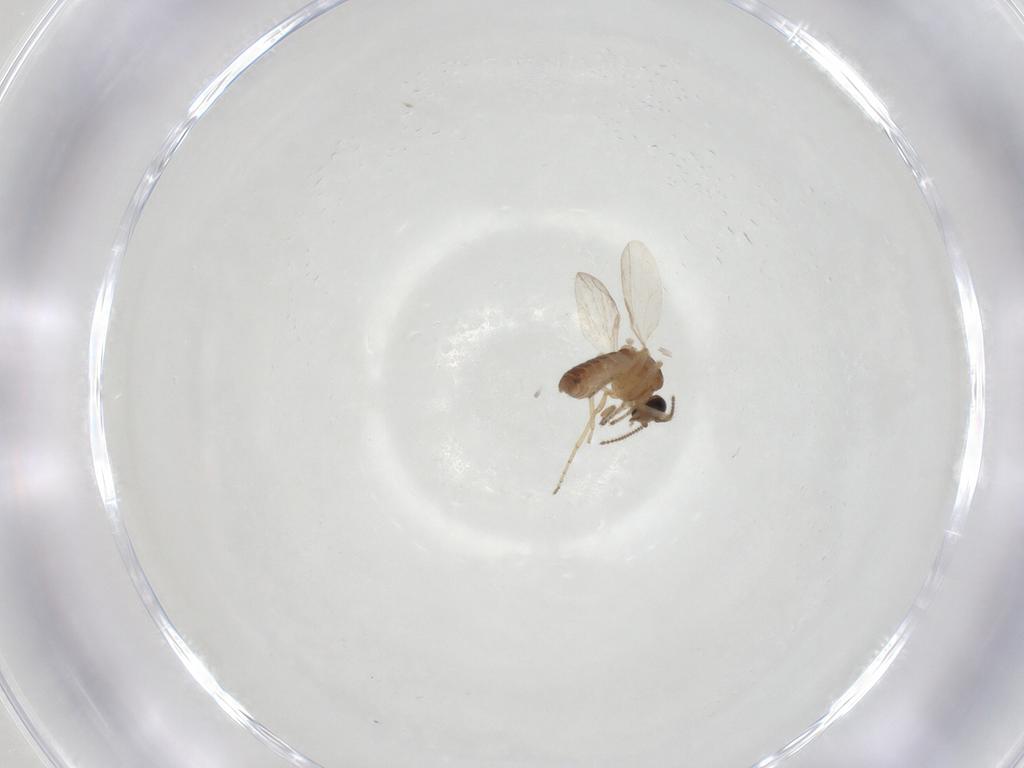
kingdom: Animalia
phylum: Arthropoda
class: Insecta
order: Diptera
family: Ceratopogonidae
